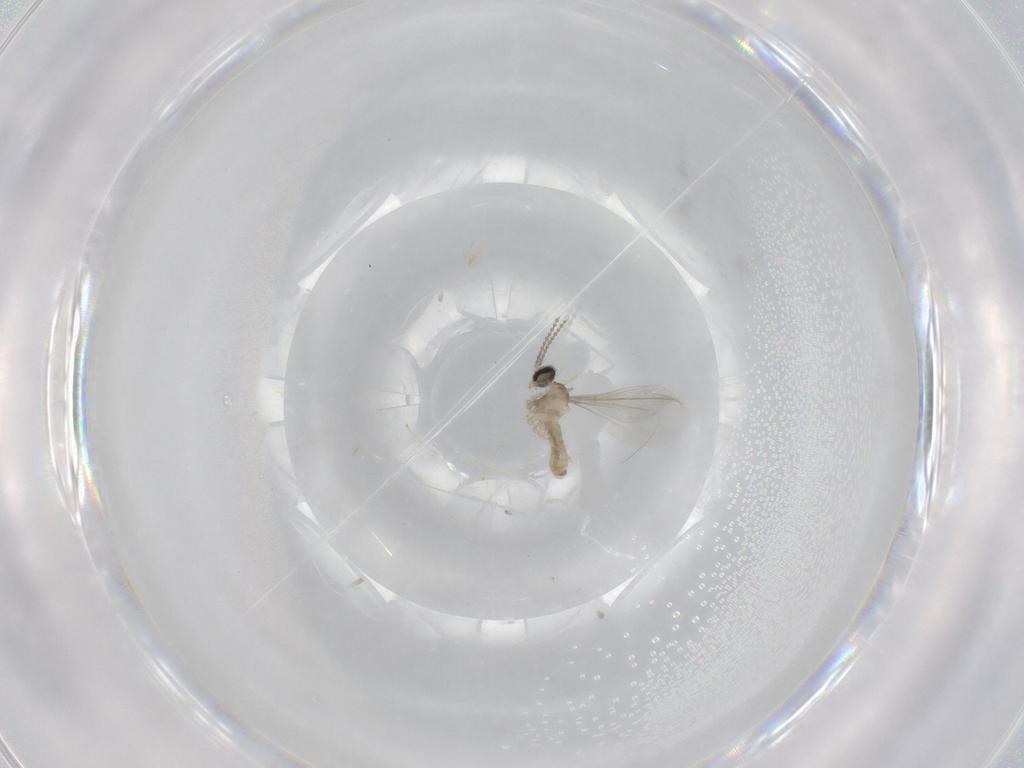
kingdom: Animalia
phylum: Arthropoda
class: Insecta
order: Diptera
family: Cecidomyiidae
